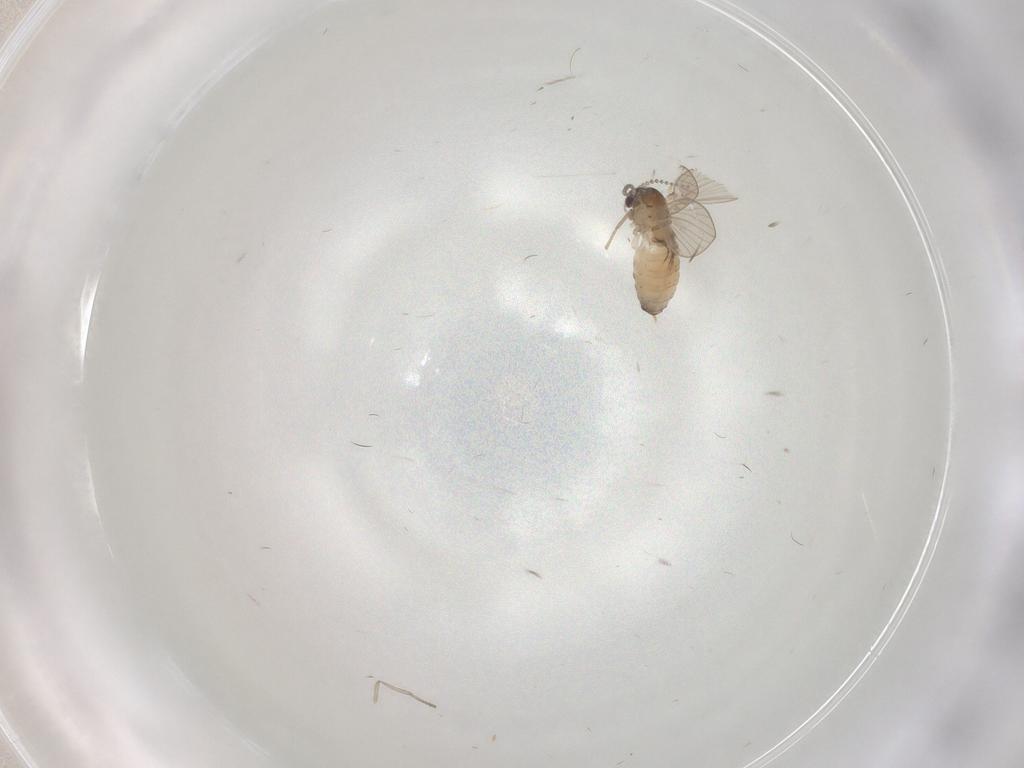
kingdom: Animalia
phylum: Arthropoda
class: Insecta
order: Diptera
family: Psychodidae
